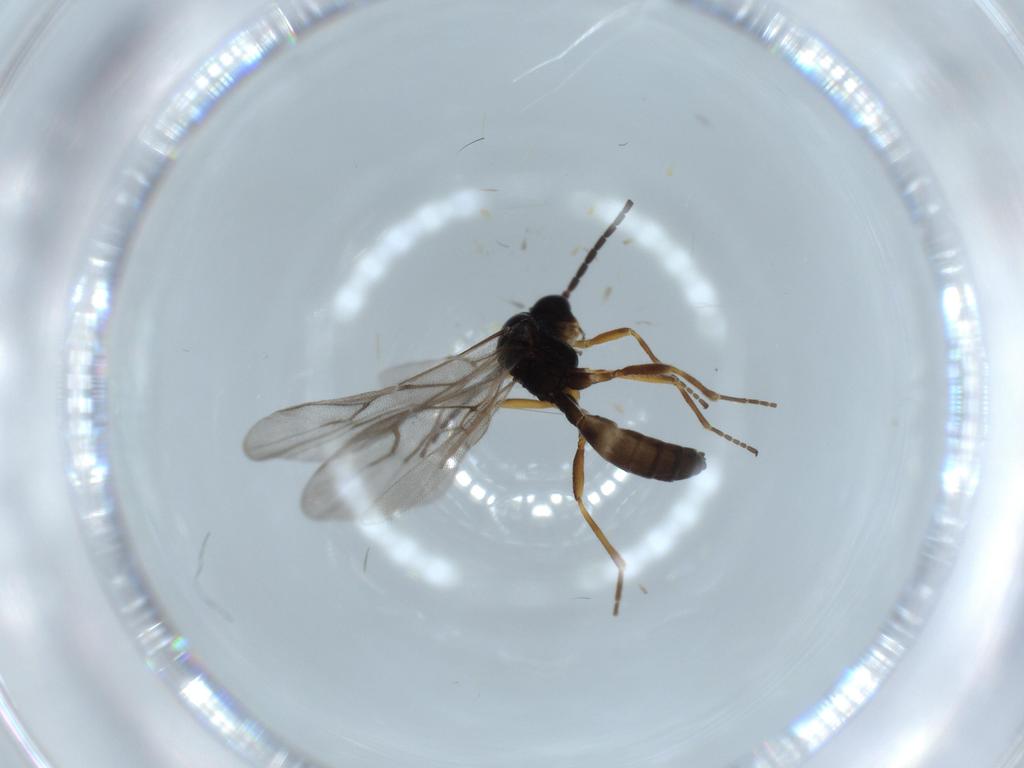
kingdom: Animalia
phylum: Arthropoda
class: Insecta
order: Hymenoptera
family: Braconidae
